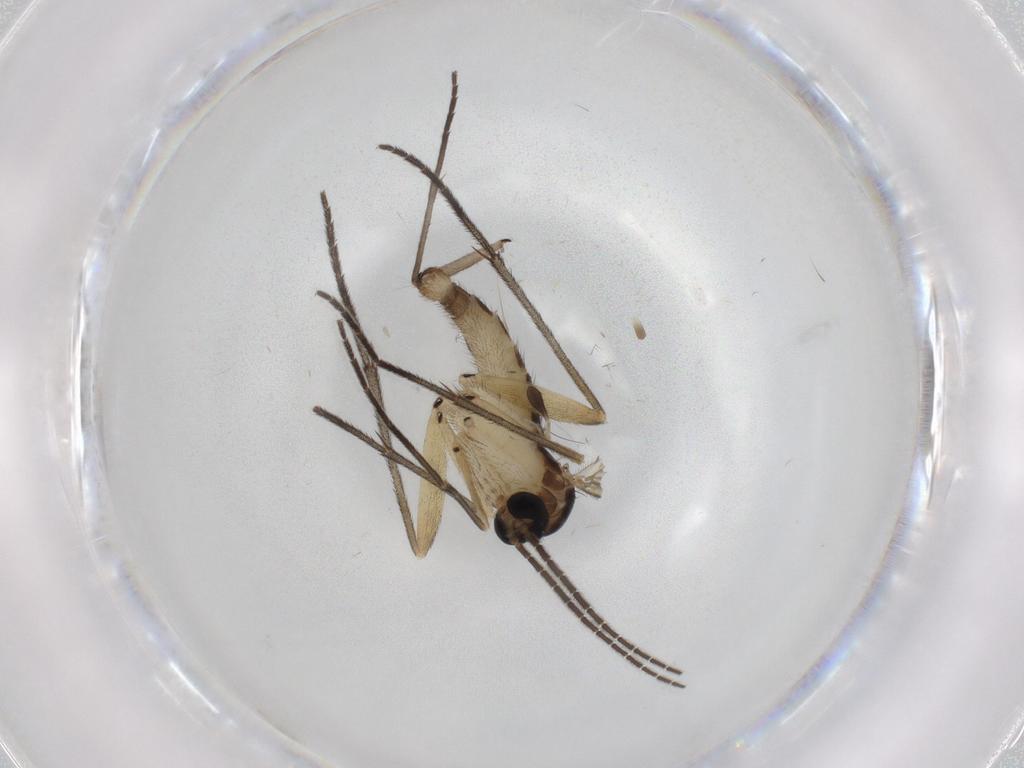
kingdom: Animalia
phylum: Arthropoda
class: Insecta
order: Diptera
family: Sciaridae
